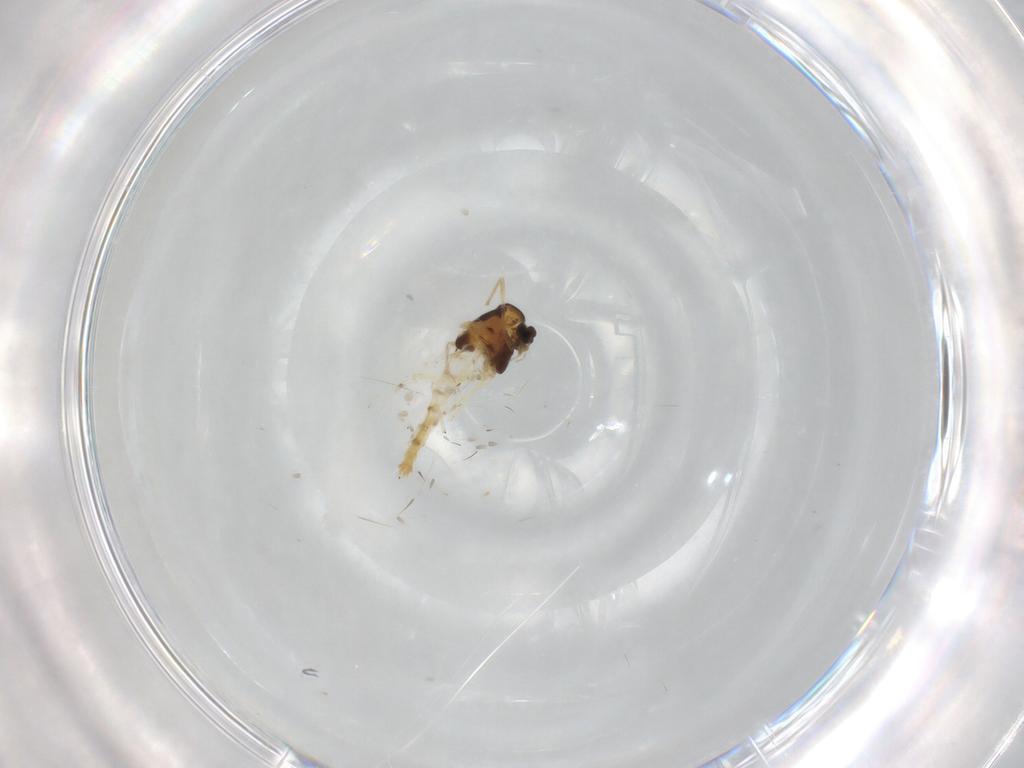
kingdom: Animalia
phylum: Arthropoda
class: Insecta
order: Diptera
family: Chironomidae
